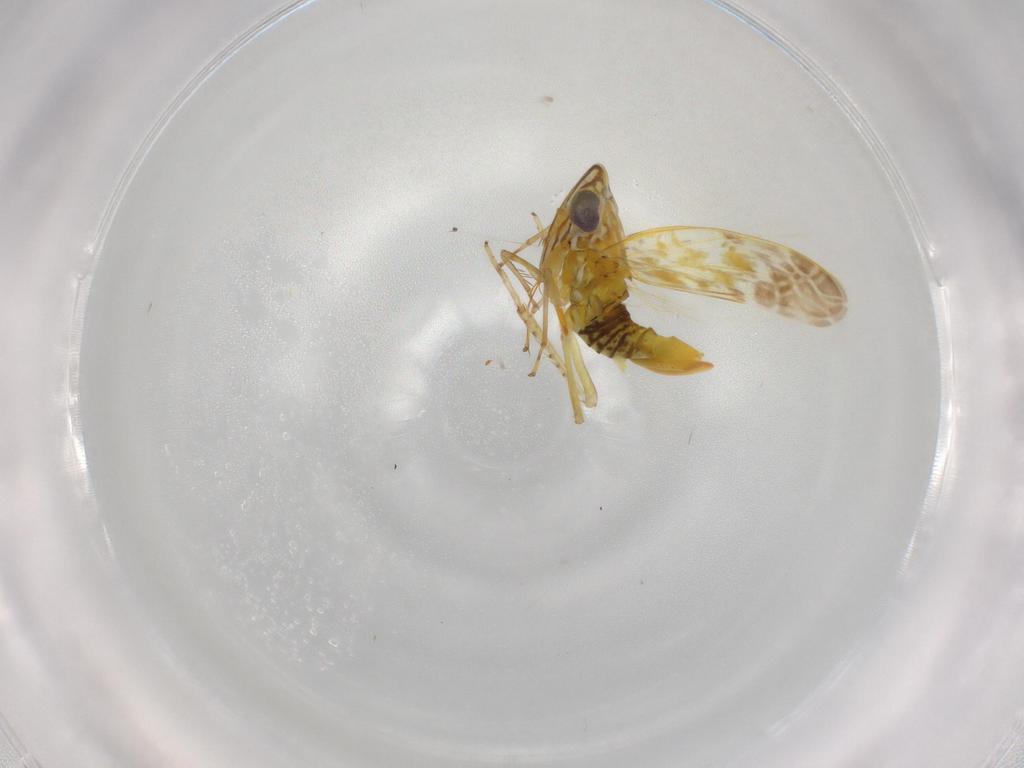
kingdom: Animalia
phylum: Arthropoda
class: Insecta
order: Hemiptera
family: Cicadellidae
